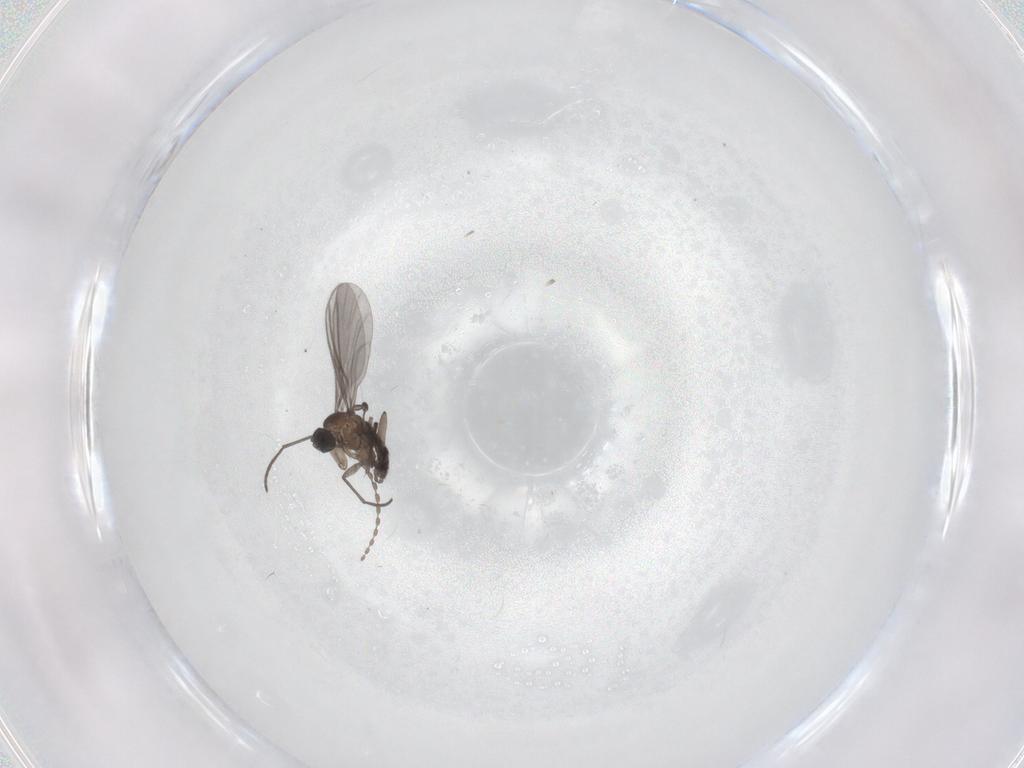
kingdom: Animalia
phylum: Arthropoda
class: Insecta
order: Diptera
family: Cecidomyiidae
